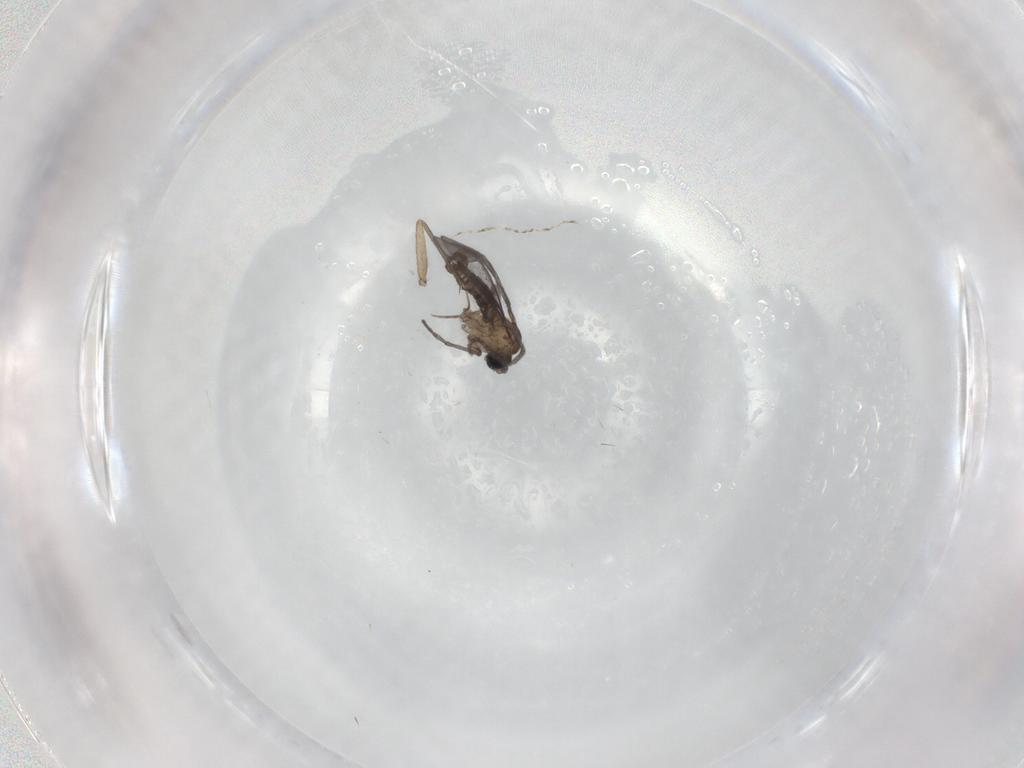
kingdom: Animalia
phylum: Arthropoda
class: Insecta
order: Diptera
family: Sciaridae
